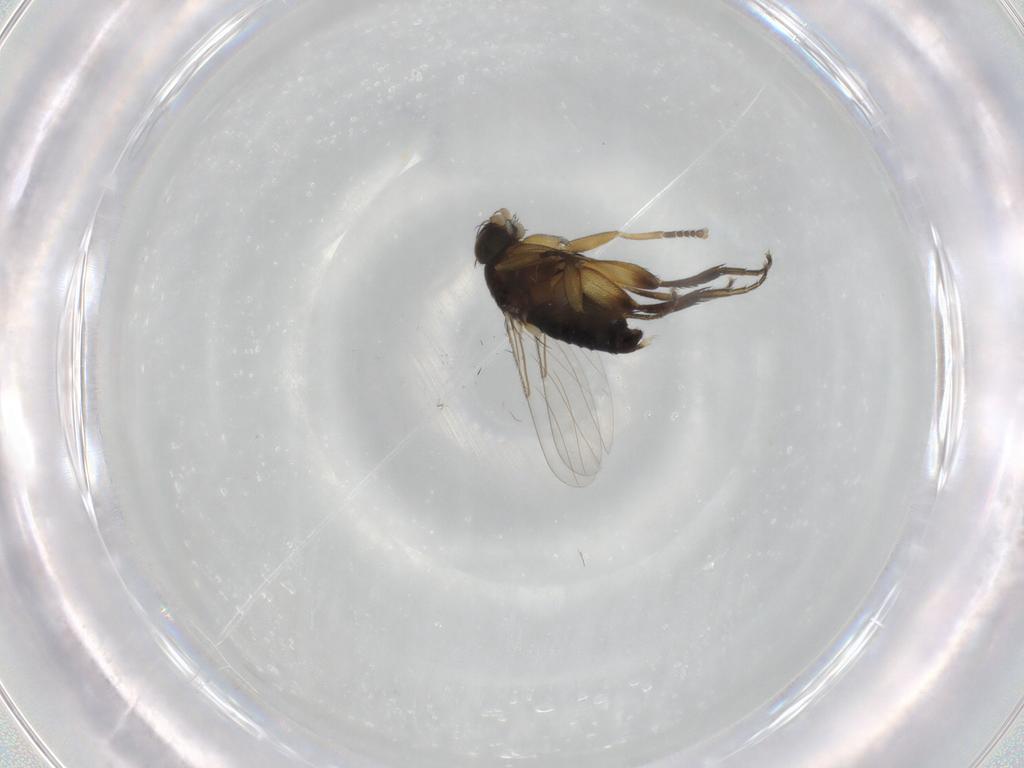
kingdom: Animalia
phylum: Arthropoda
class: Insecta
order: Diptera
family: Phoridae
